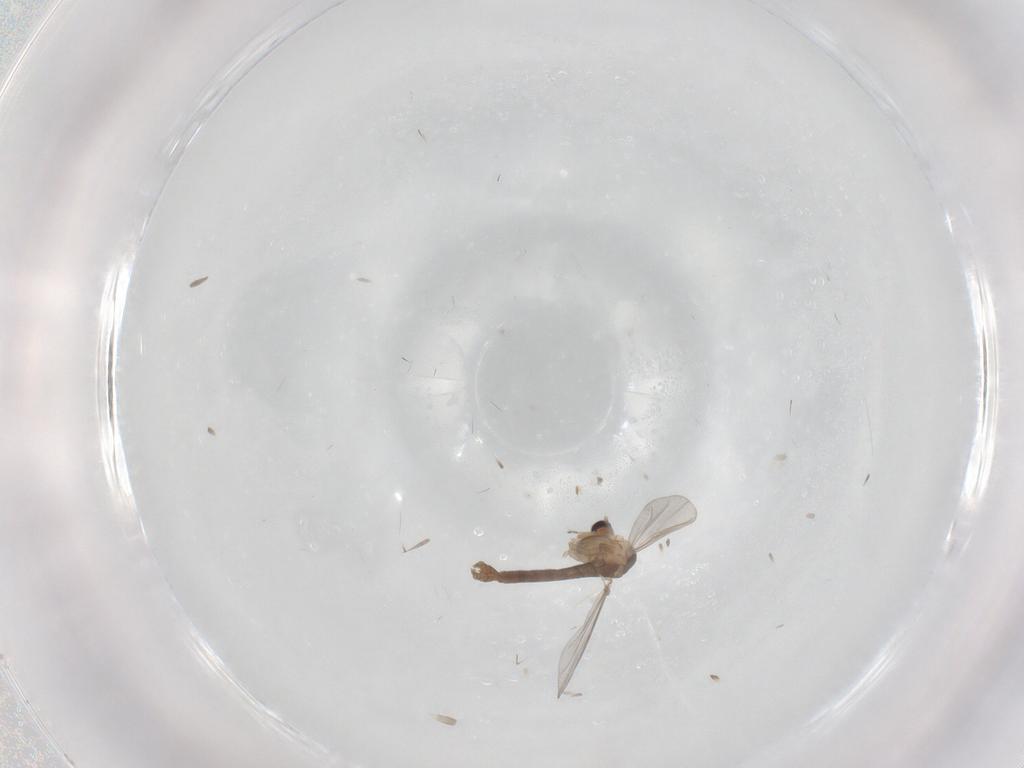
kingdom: Animalia
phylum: Arthropoda
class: Insecta
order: Diptera
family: Chironomidae
